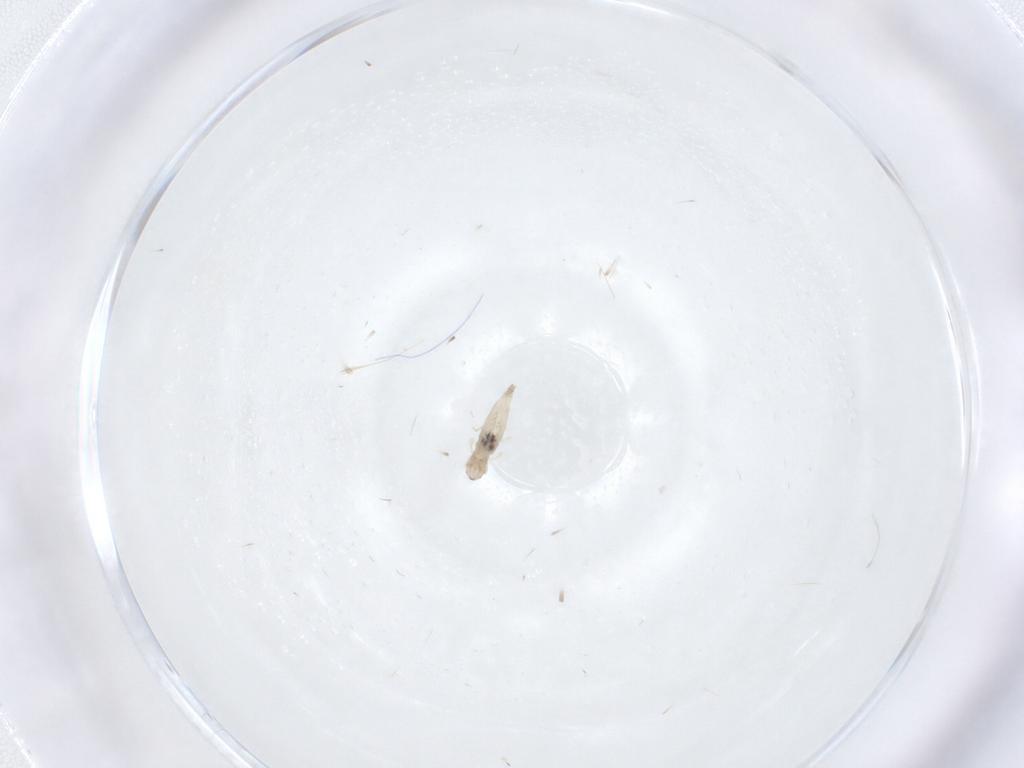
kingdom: Animalia
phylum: Arthropoda
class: Insecta
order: Diptera
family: Cecidomyiidae
